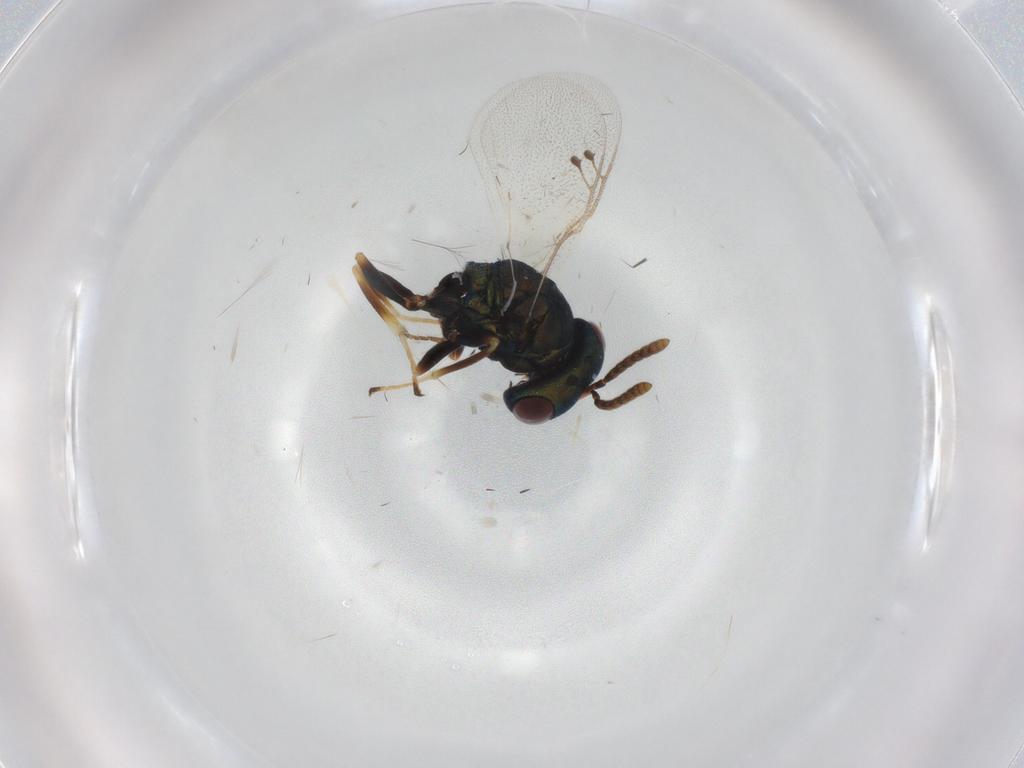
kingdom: Animalia
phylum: Arthropoda
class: Insecta
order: Hymenoptera
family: Pteromalidae
